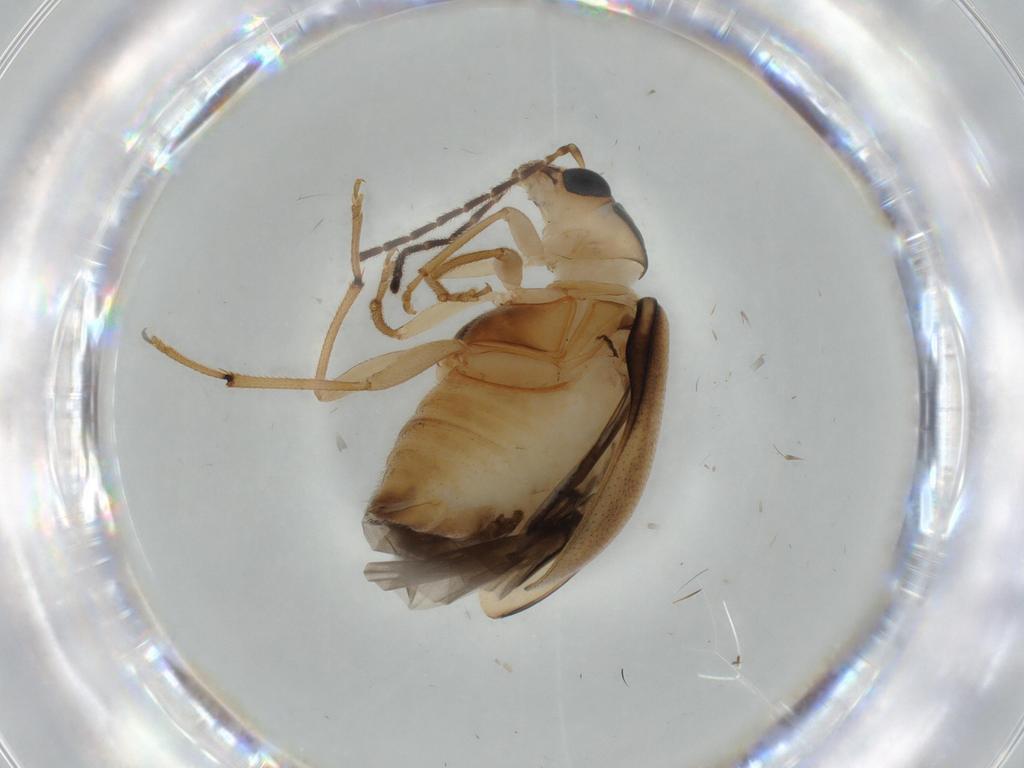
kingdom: Animalia
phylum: Arthropoda
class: Insecta
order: Coleoptera
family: Melyridae
